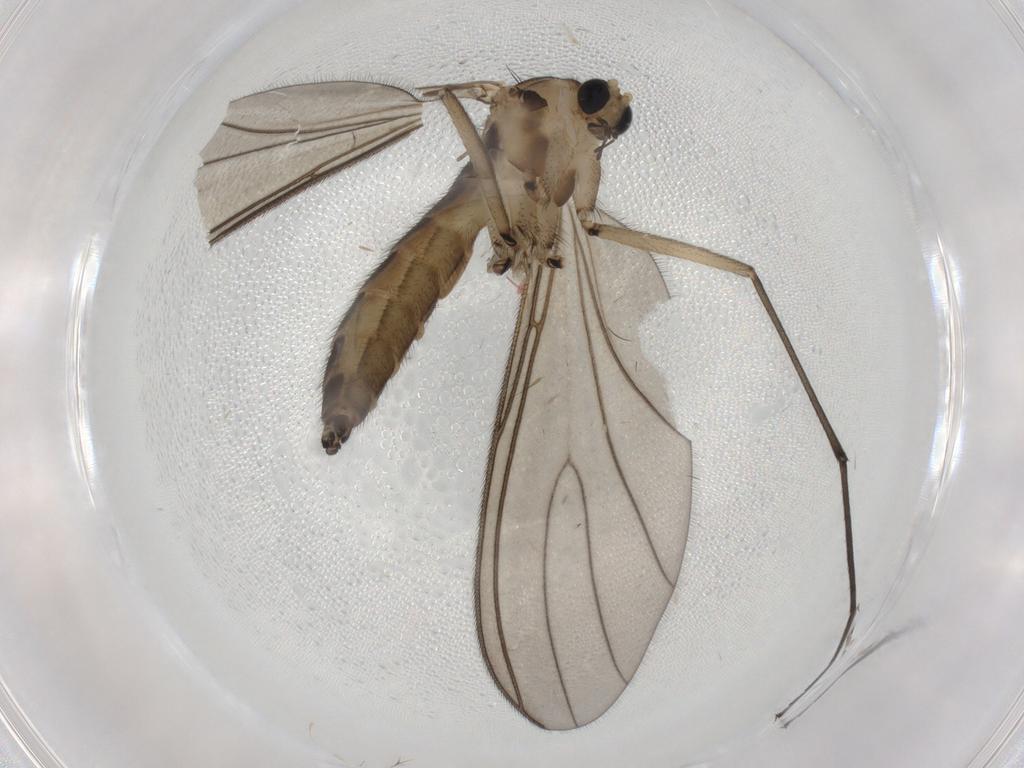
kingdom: Animalia
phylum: Arthropoda
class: Insecta
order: Diptera
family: Sciaridae
